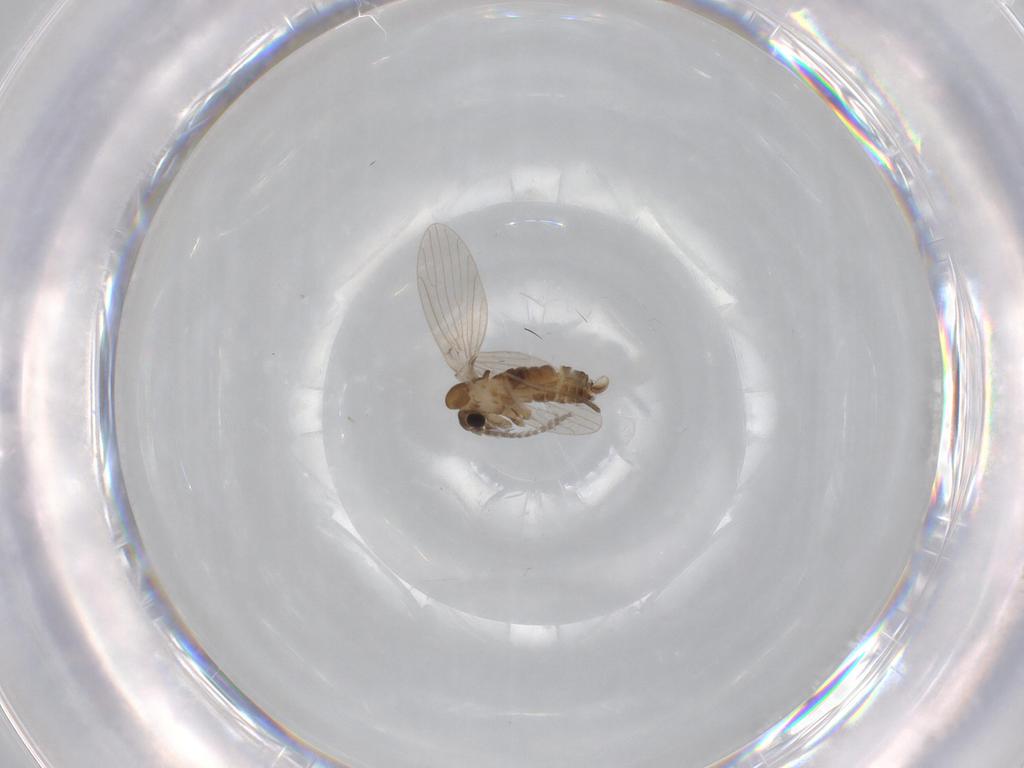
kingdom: Animalia
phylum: Arthropoda
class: Insecta
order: Diptera
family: Psychodidae
